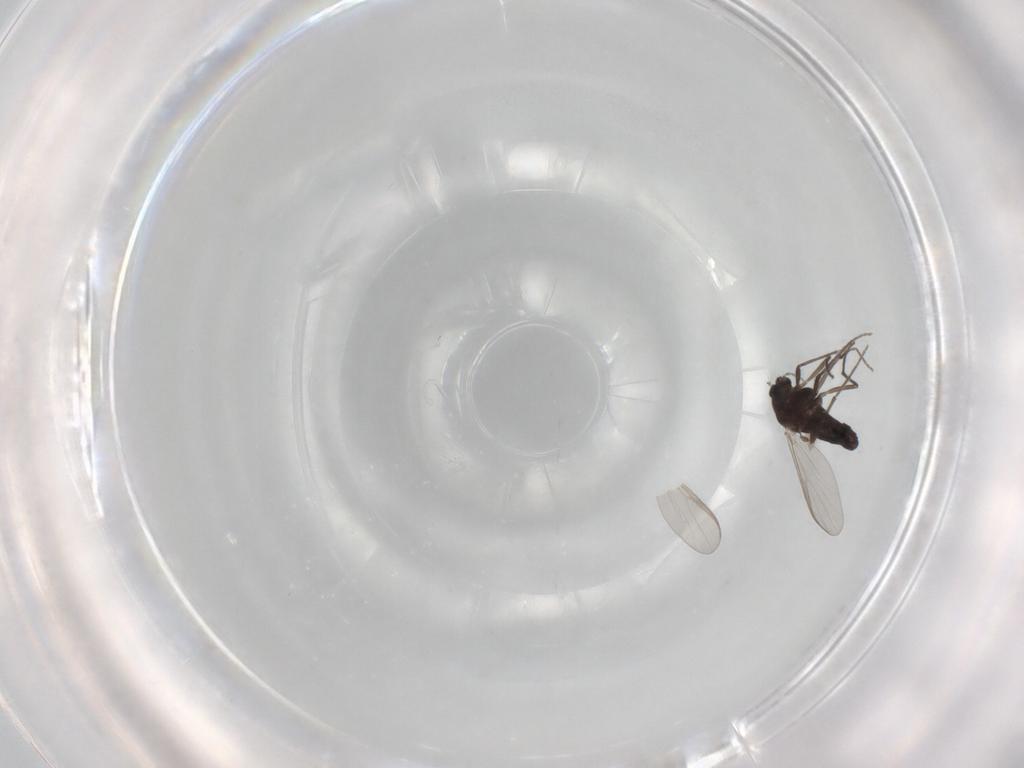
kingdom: Animalia
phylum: Arthropoda
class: Insecta
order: Diptera
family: Chironomidae
